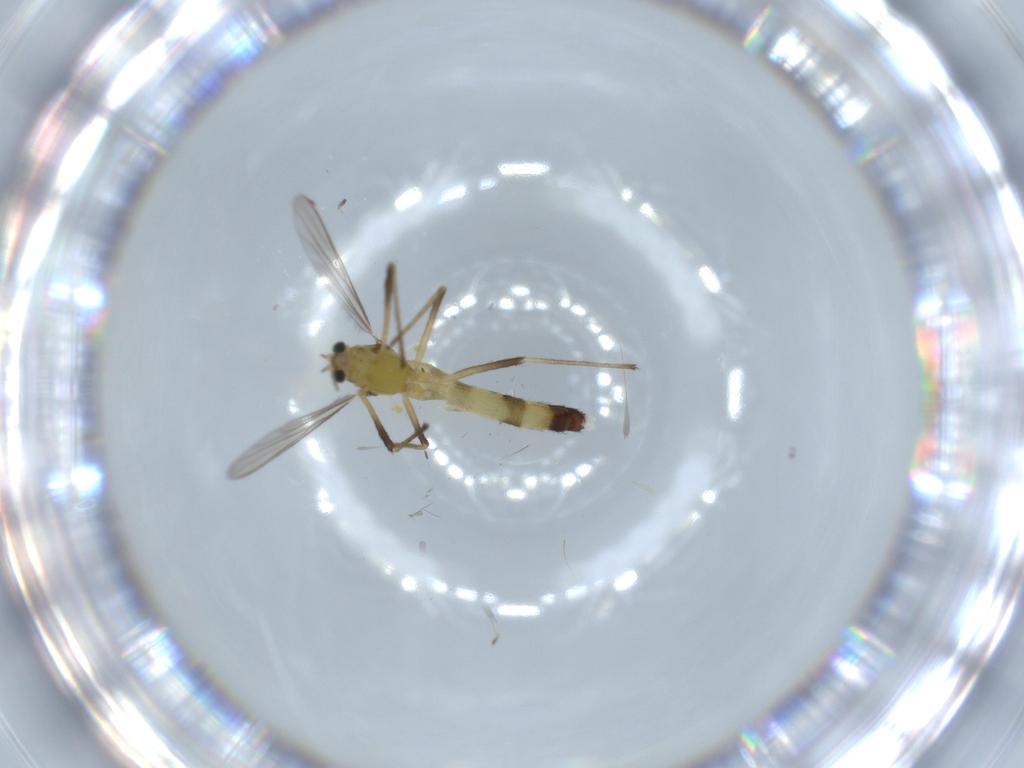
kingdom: Animalia
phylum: Arthropoda
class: Insecta
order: Diptera
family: Chironomidae
